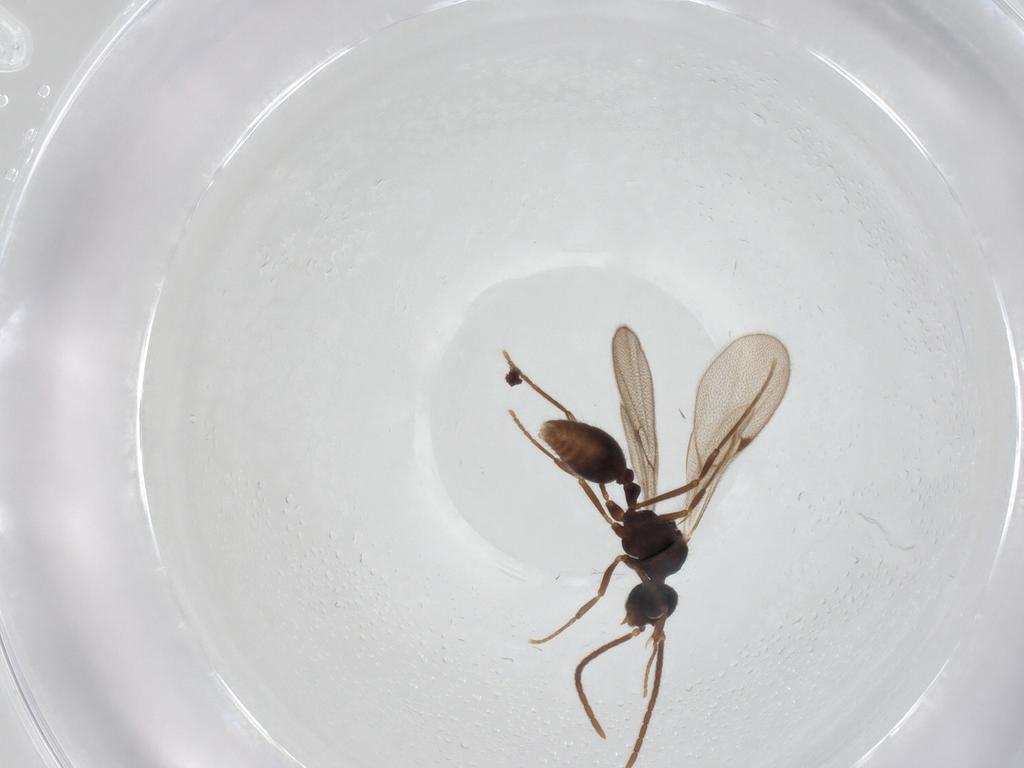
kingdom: Animalia
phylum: Arthropoda
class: Insecta
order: Hymenoptera
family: Formicidae
